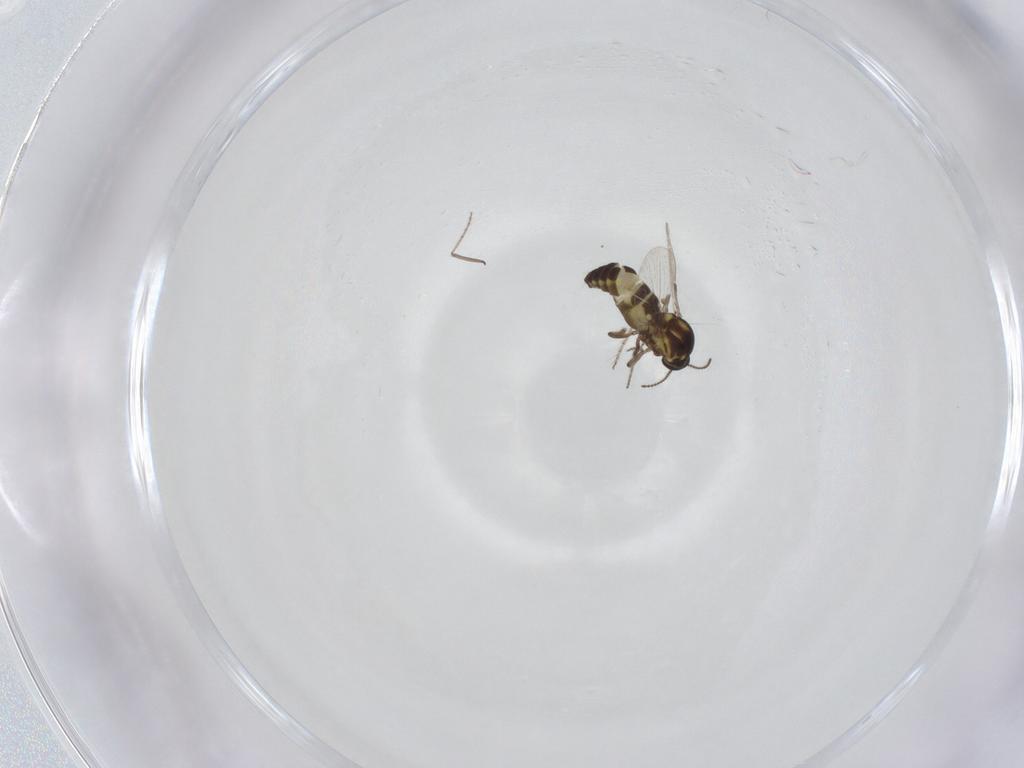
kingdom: Animalia
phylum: Arthropoda
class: Insecta
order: Diptera
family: Ceratopogonidae
